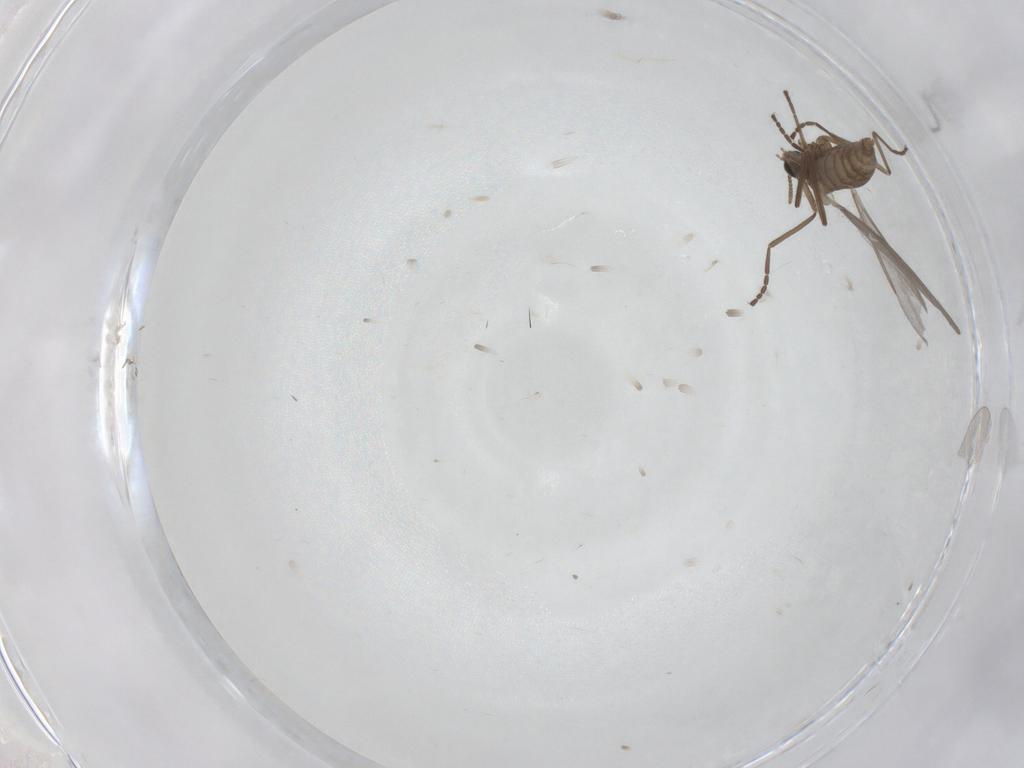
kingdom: Animalia
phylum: Arthropoda
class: Insecta
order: Diptera
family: Cecidomyiidae
